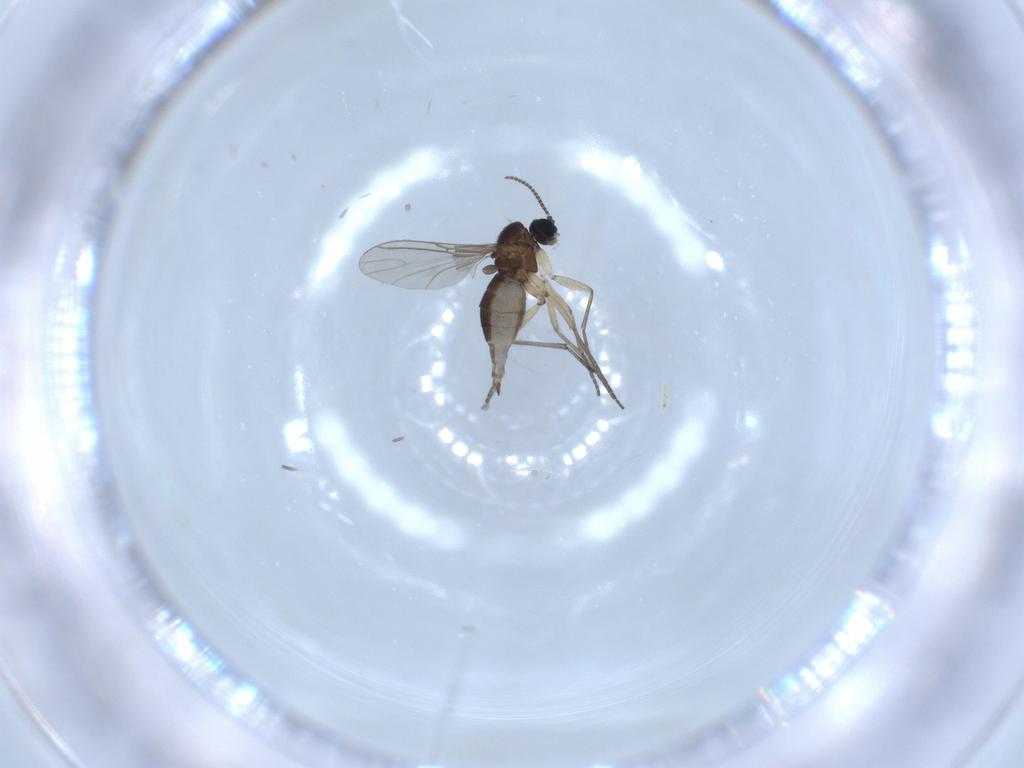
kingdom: Animalia
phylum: Arthropoda
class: Insecta
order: Diptera
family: Sciaridae
